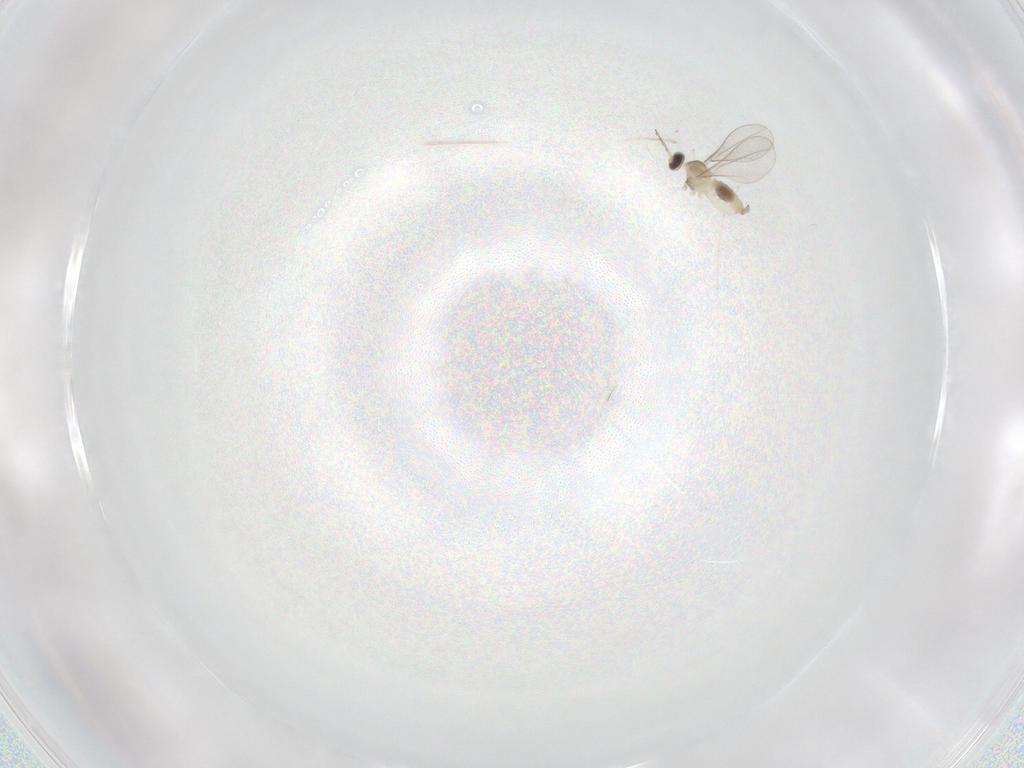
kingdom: Animalia
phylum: Arthropoda
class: Insecta
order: Diptera
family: Cecidomyiidae
